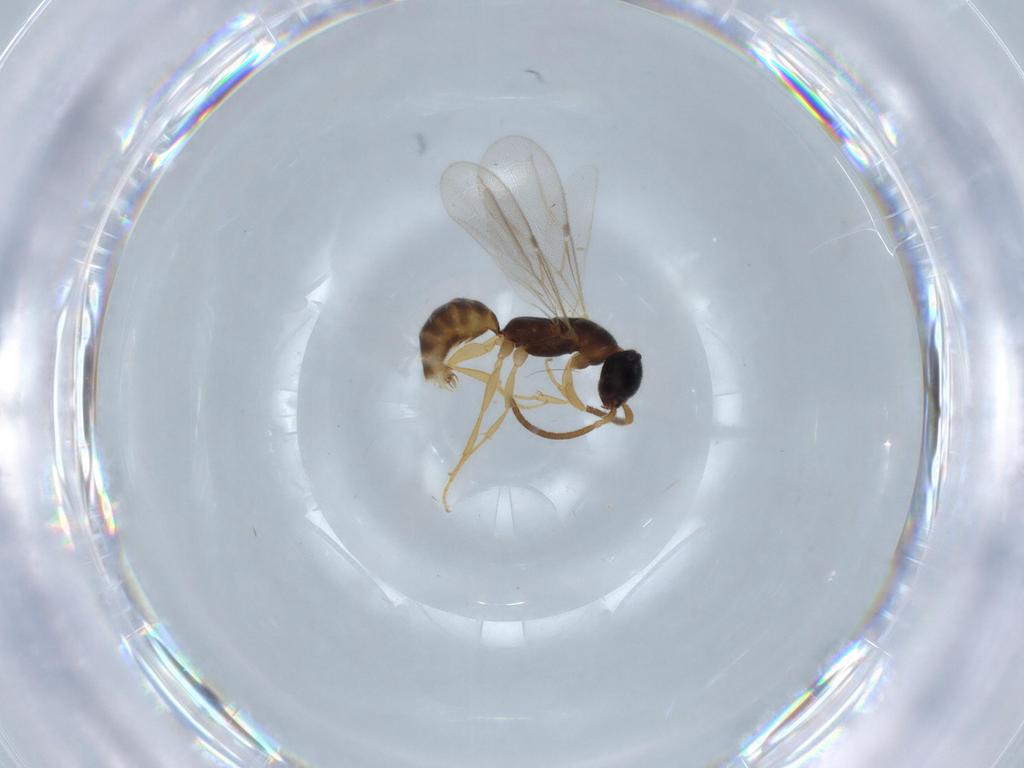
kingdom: Animalia
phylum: Arthropoda
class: Insecta
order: Hymenoptera
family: Bethylidae
